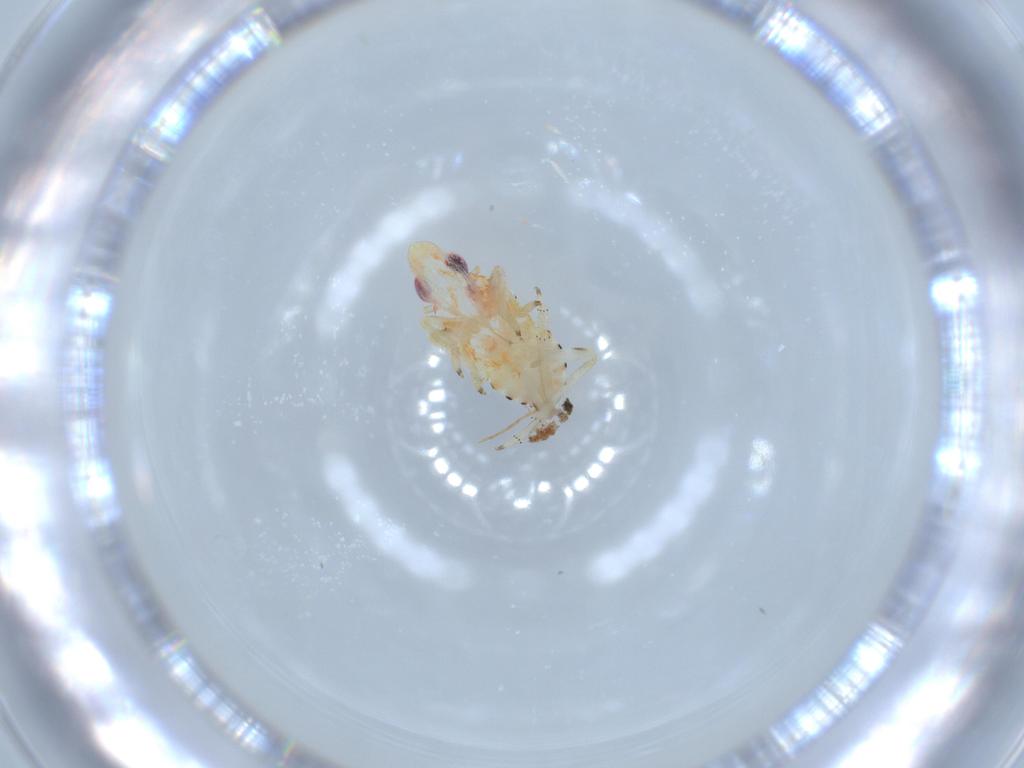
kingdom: Animalia
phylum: Arthropoda
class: Insecta
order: Hemiptera
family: Tropiduchidae
